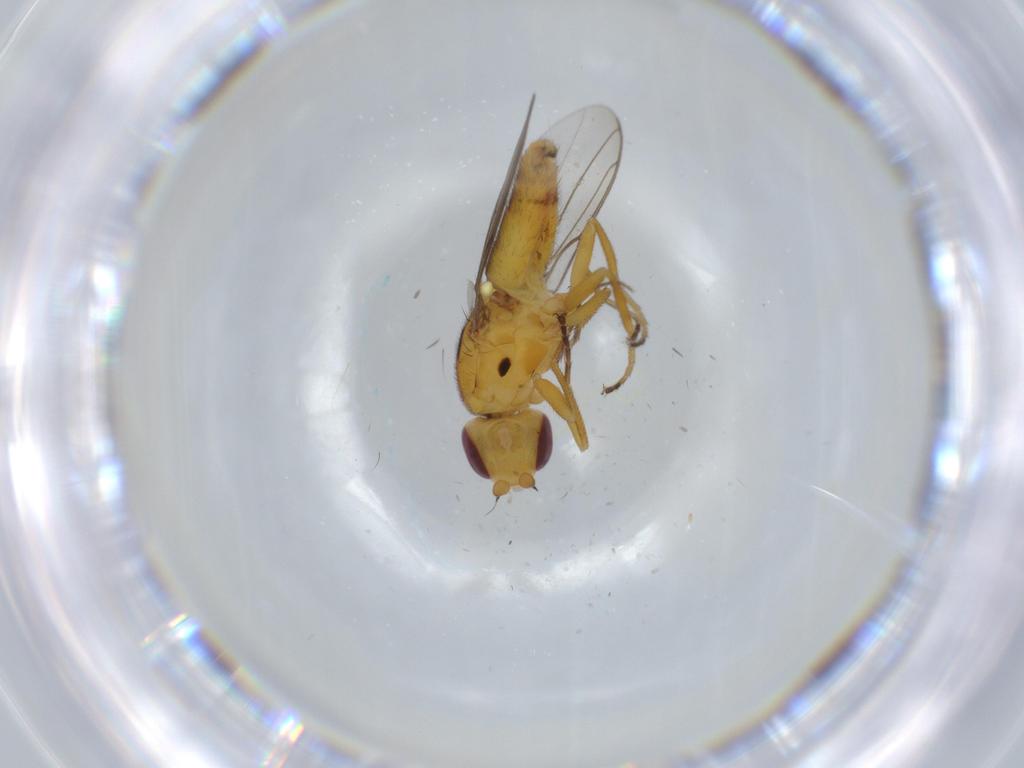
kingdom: Animalia
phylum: Arthropoda
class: Insecta
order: Diptera
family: Chloropidae
